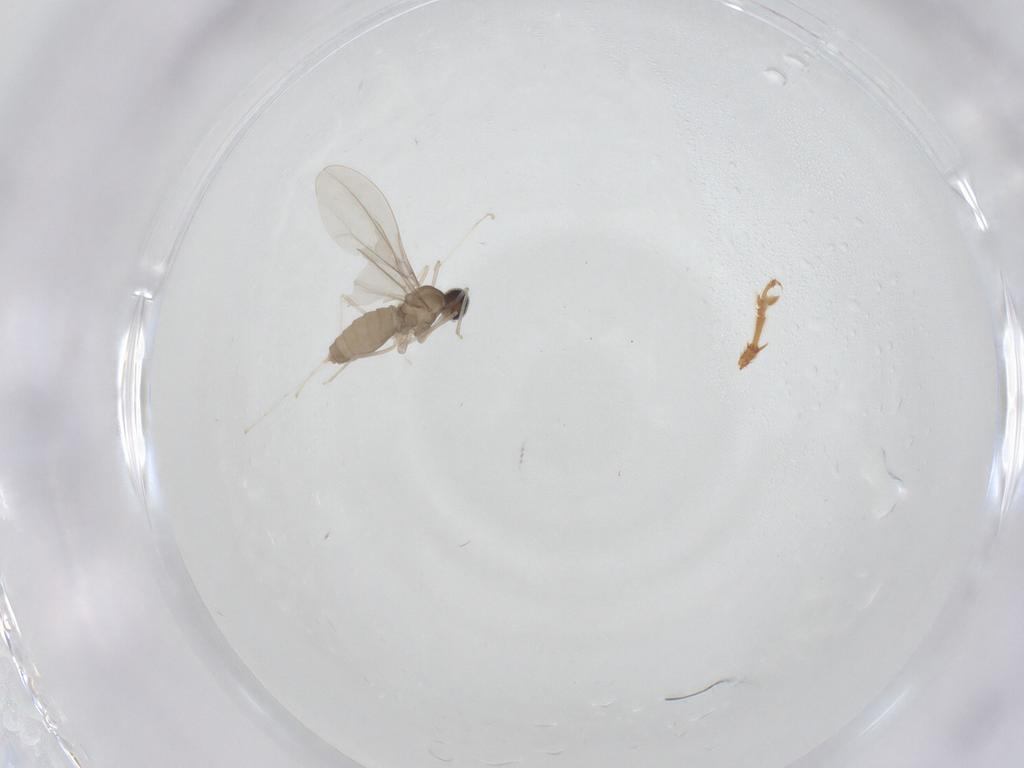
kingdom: Animalia
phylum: Arthropoda
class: Insecta
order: Diptera
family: Cecidomyiidae
